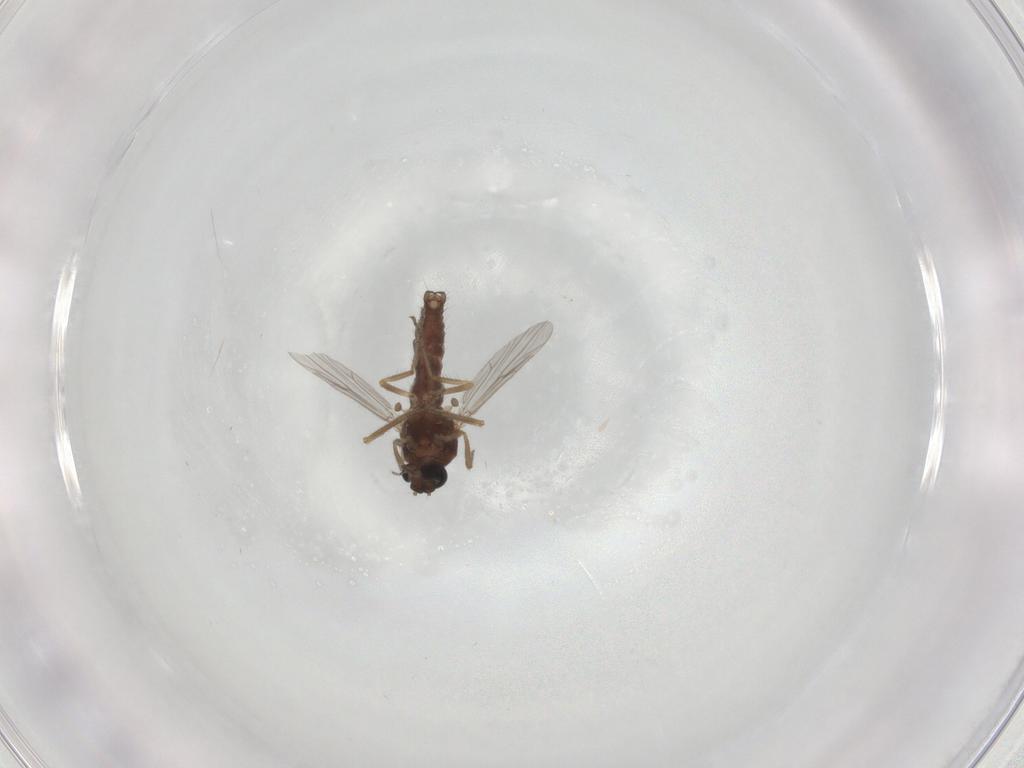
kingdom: Animalia
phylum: Arthropoda
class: Insecta
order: Diptera
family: Ceratopogonidae
